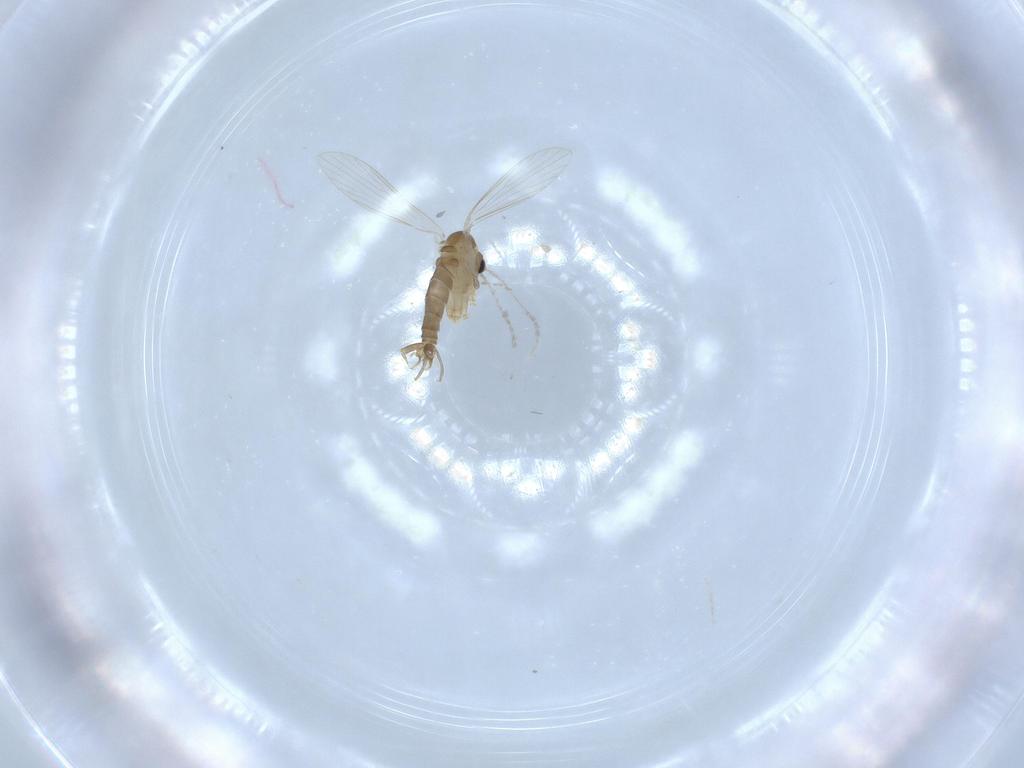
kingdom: Animalia
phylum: Arthropoda
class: Insecta
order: Diptera
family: Psychodidae
